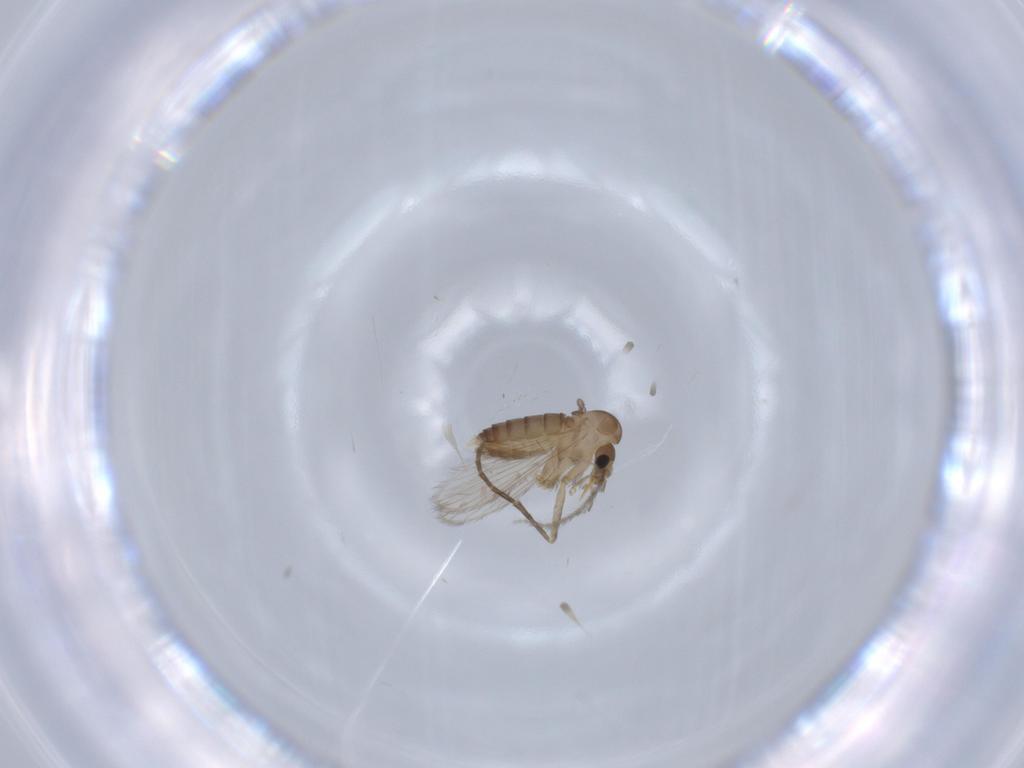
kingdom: Animalia
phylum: Arthropoda
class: Insecta
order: Diptera
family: Psychodidae
